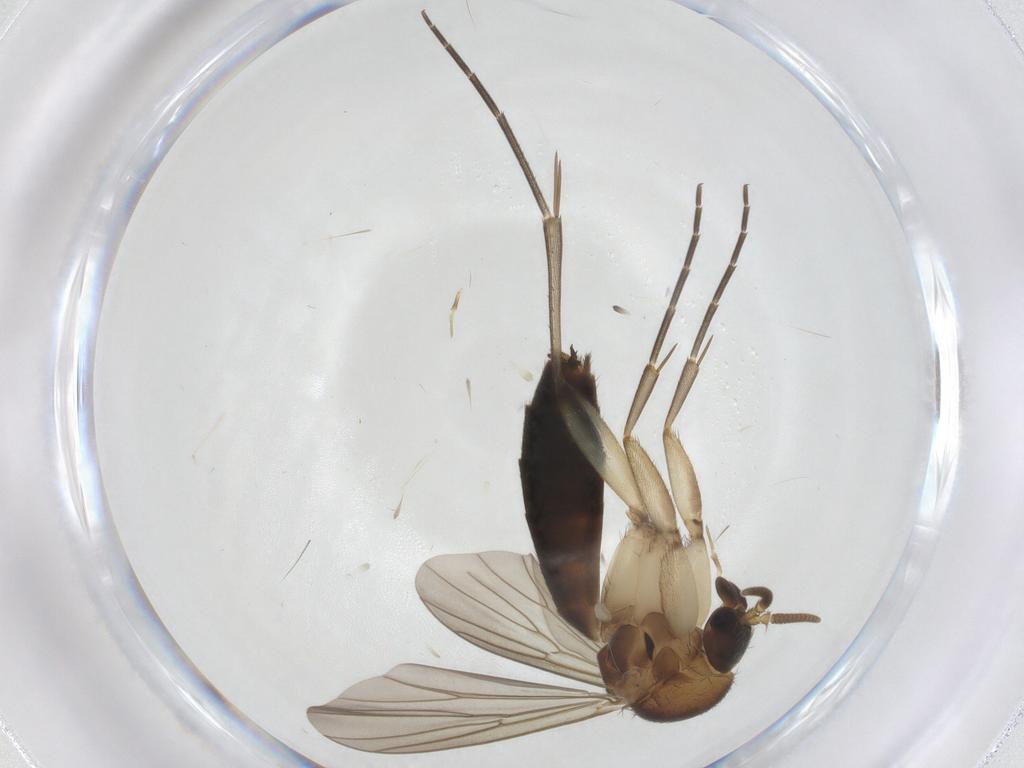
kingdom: Animalia
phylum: Arthropoda
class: Insecta
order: Diptera
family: Mycetophilidae
